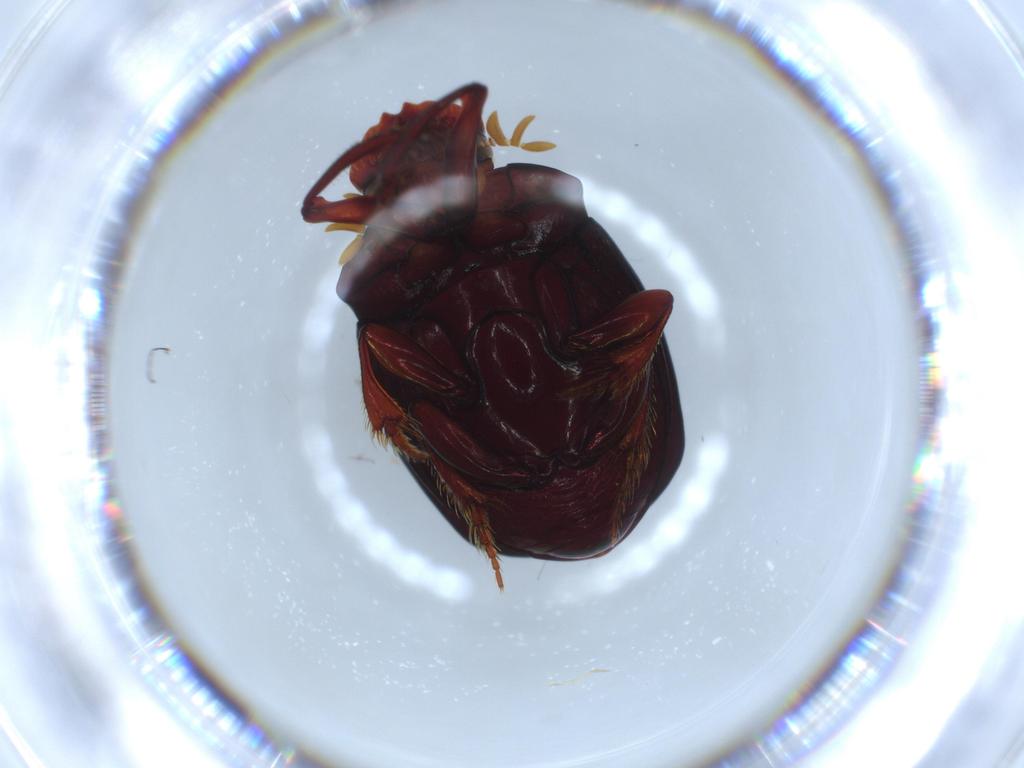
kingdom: Animalia
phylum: Arthropoda
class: Insecta
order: Coleoptera
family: Scarabaeidae
